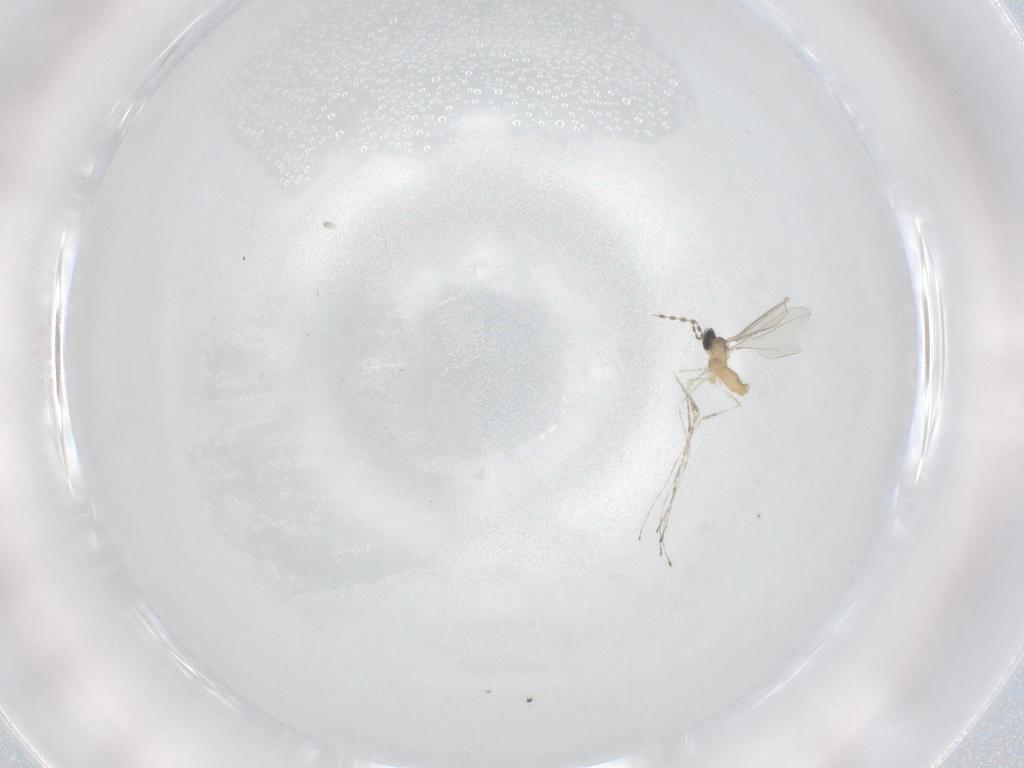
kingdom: Animalia
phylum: Arthropoda
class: Insecta
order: Diptera
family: Cecidomyiidae
